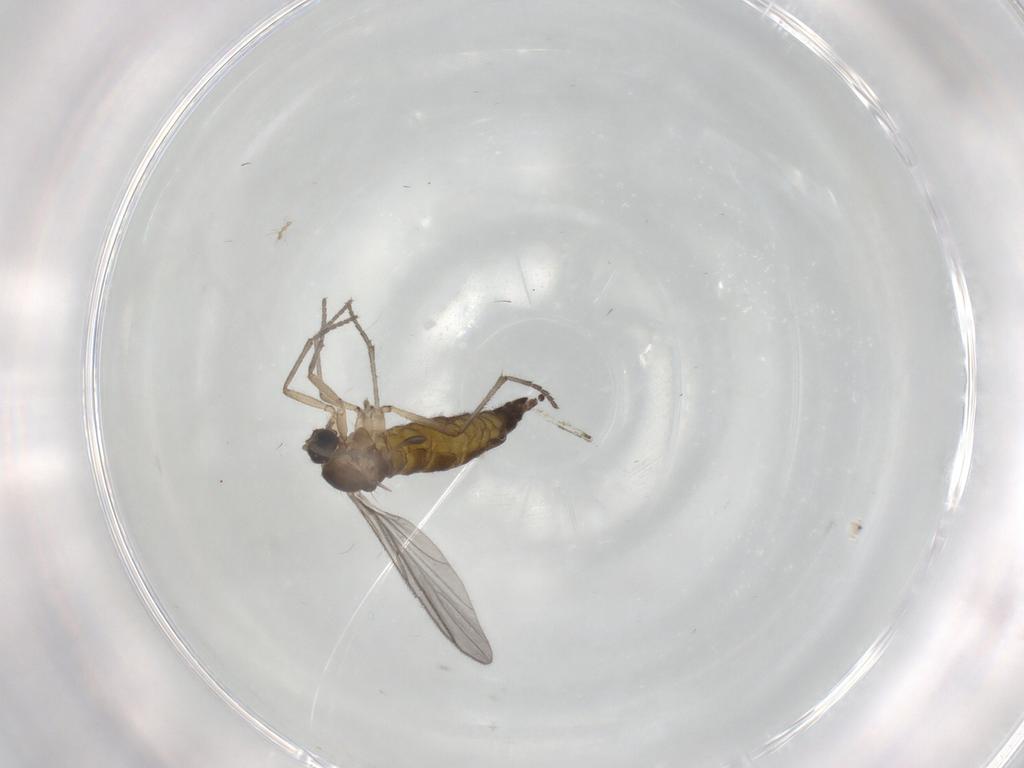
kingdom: Animalia
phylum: Arthropoda
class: Insecta
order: Diptera
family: Sciaridae
